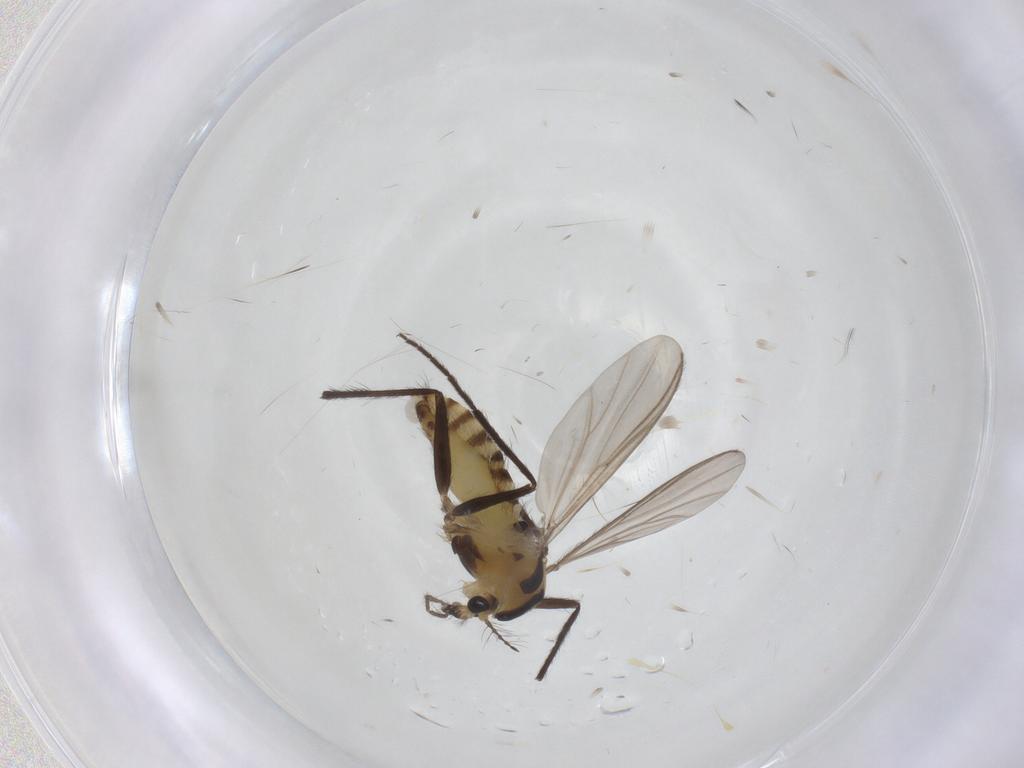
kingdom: Animalia
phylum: Arthropoda
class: Insecta
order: Diptera
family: Chironomidae
